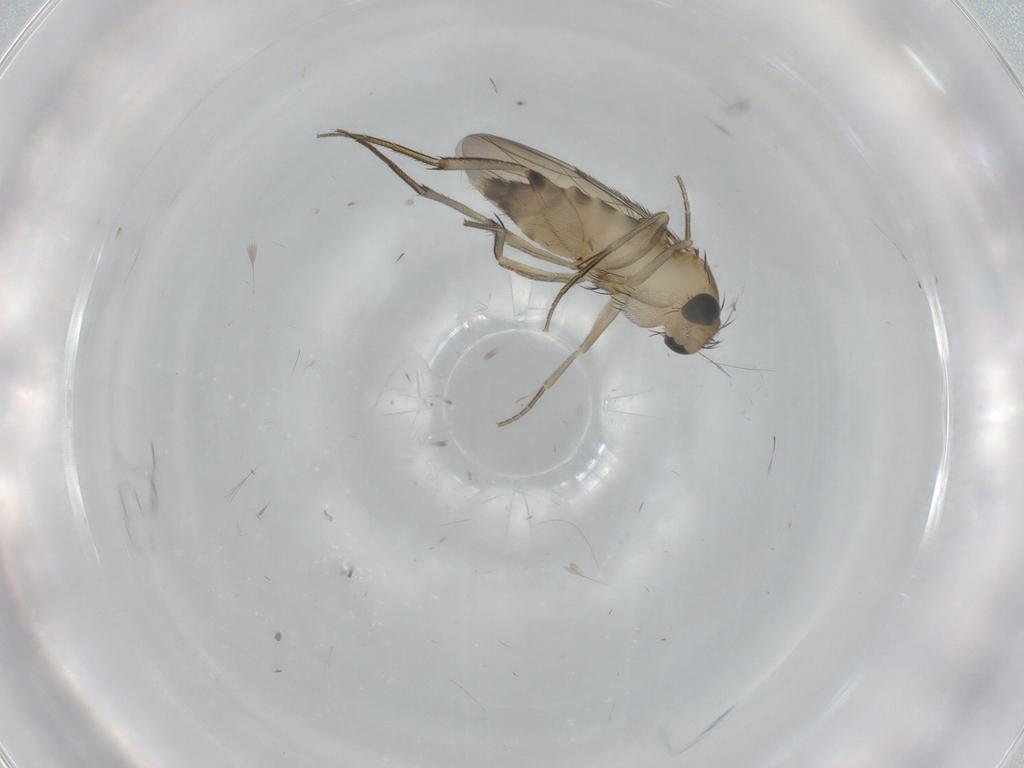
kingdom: Animalia
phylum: Arthropoda
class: Insecta
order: Diptera
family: Phoridae
